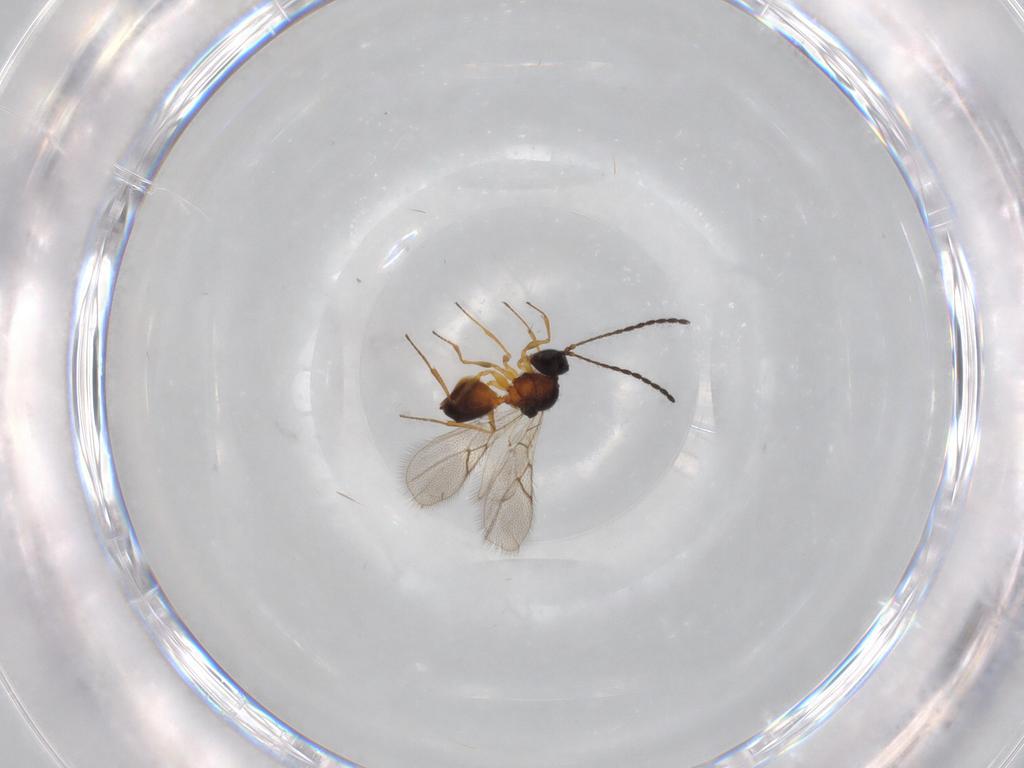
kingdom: Animalia
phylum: Arthropoda
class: Insecta
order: Hymenoptera
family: Figitidae
